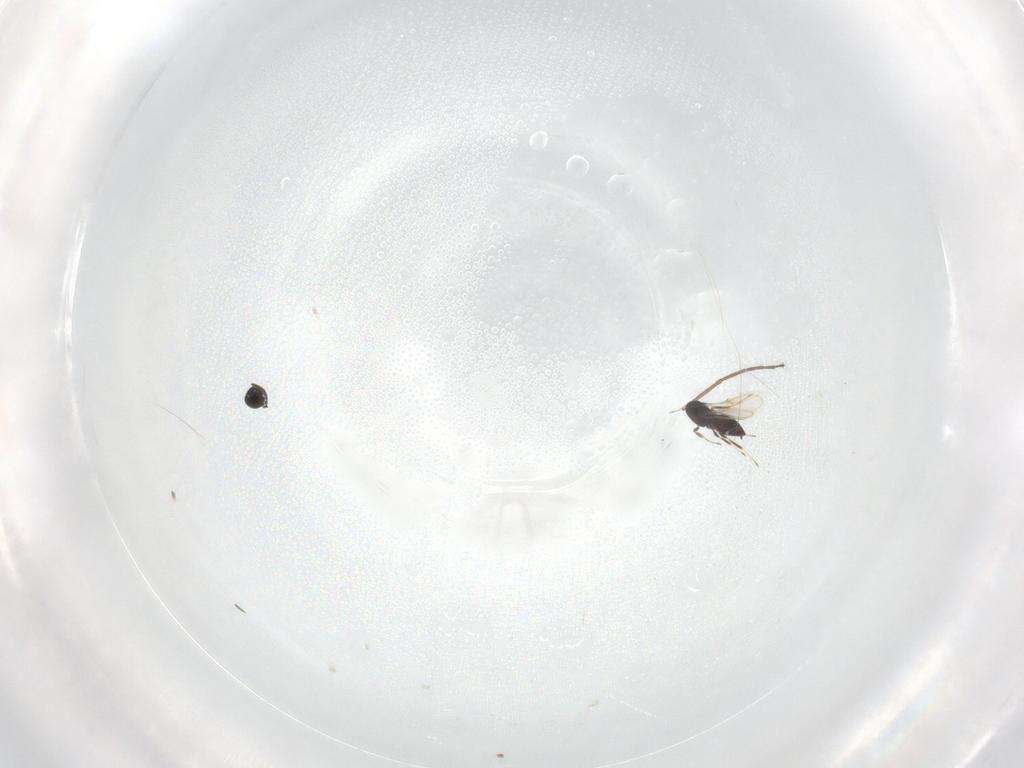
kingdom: Animalia
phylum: Arthropoda
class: Insecta
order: Hymenoptera
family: Scelionidae
